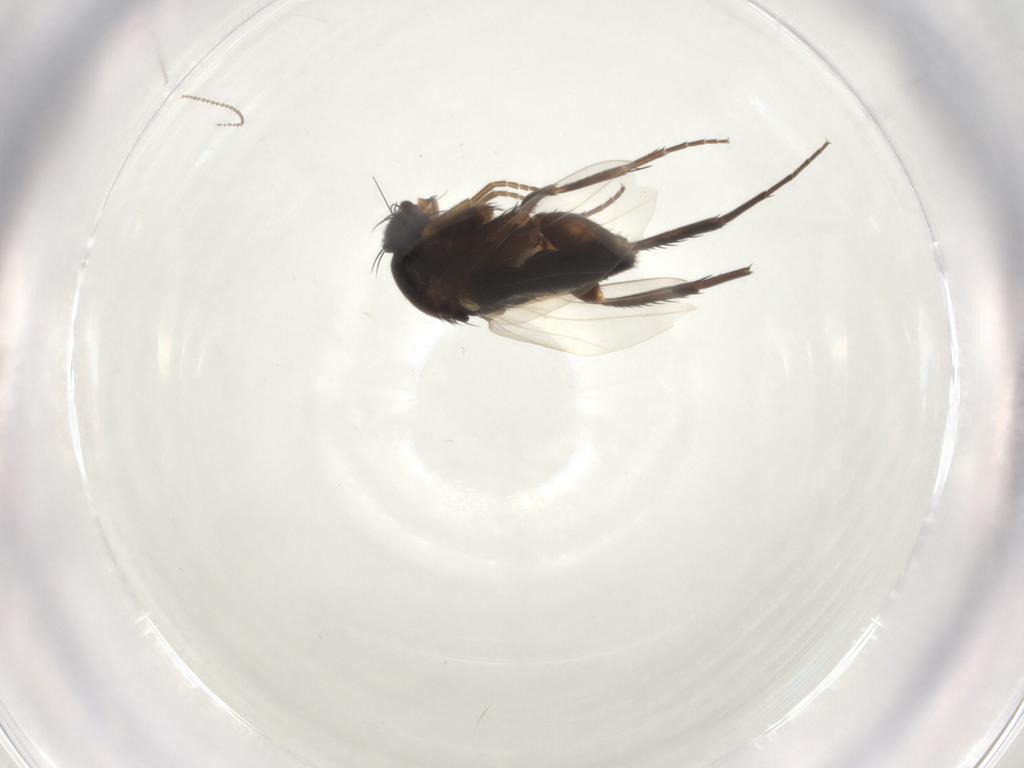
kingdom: Animalia
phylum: Arthropoda
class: Insecta
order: Diptera
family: Phoridae
